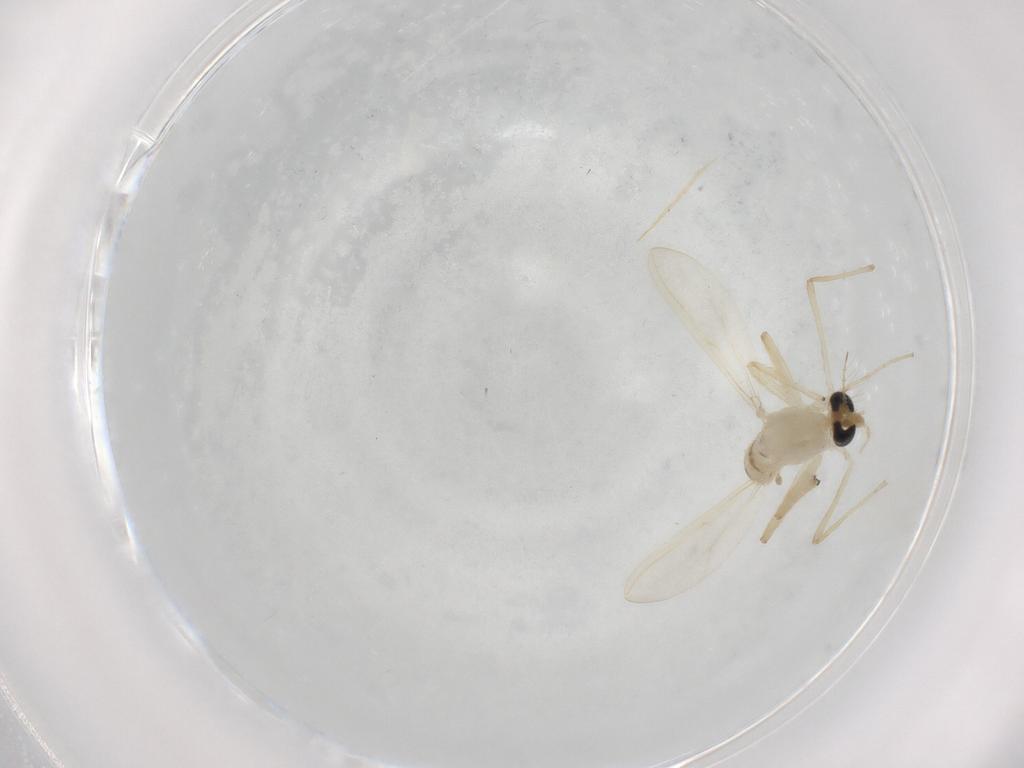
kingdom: Animalia
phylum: Arthropoda
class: Insecta
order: Diptera
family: Chironomidae
